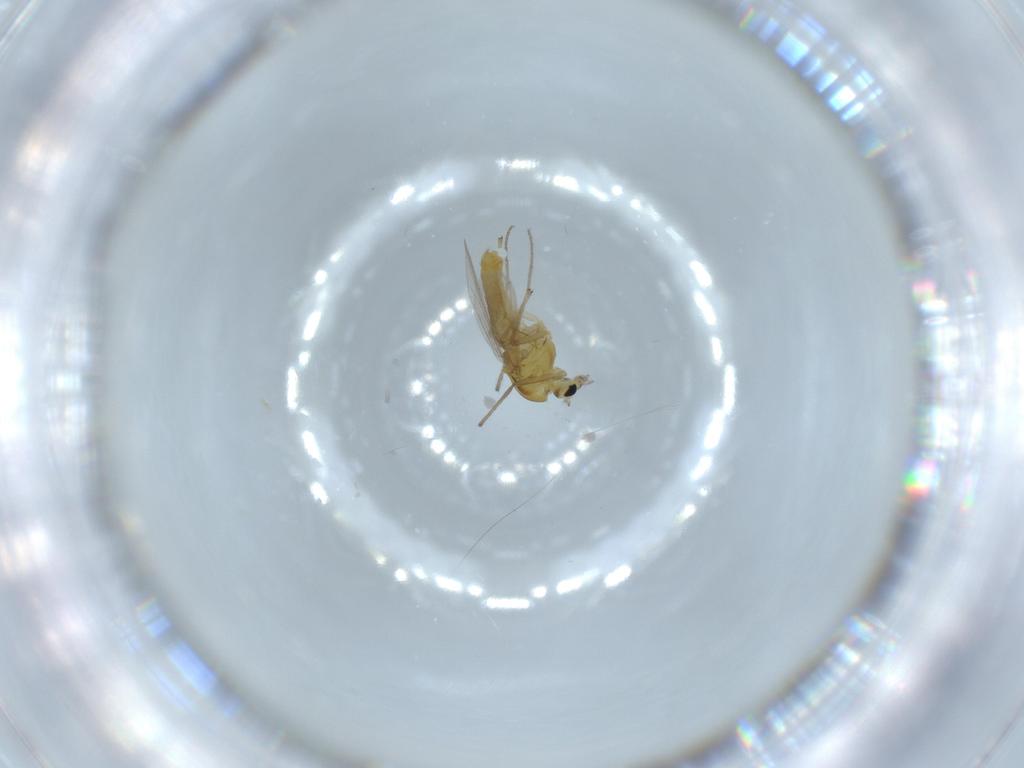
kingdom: Animalia
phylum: Arthropoda
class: Insecta
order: Diptera
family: Chironomidae
